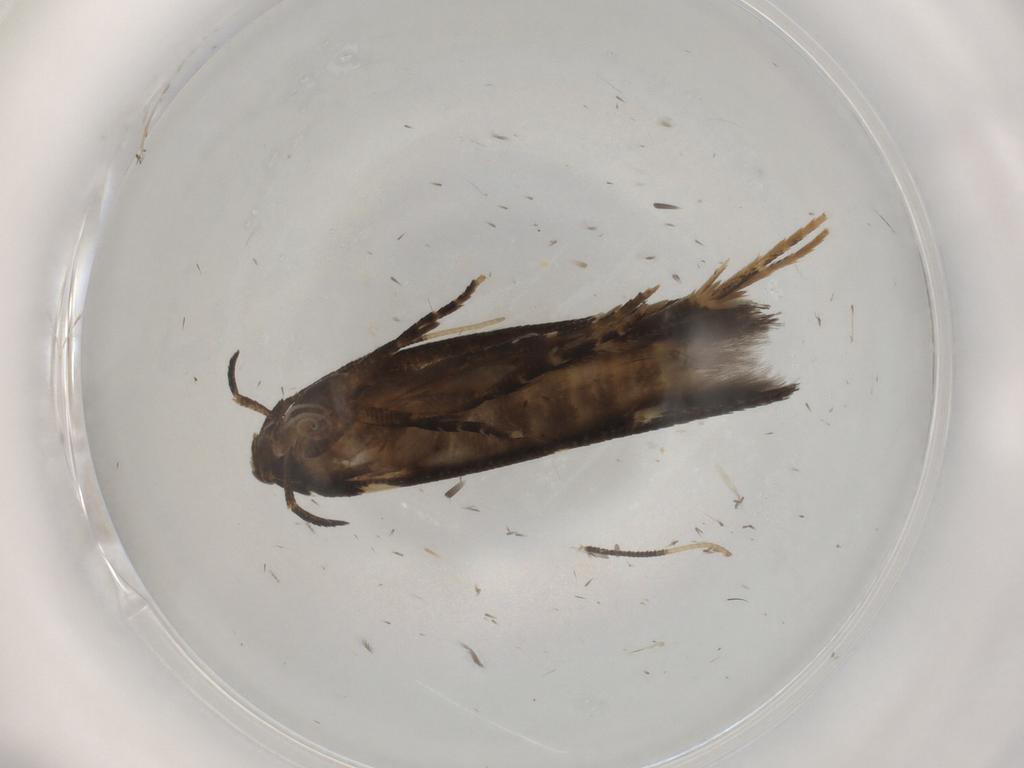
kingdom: Animalia
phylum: Arthropoda
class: Insecta
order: Lepidoptera
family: Cosmopterigidae
